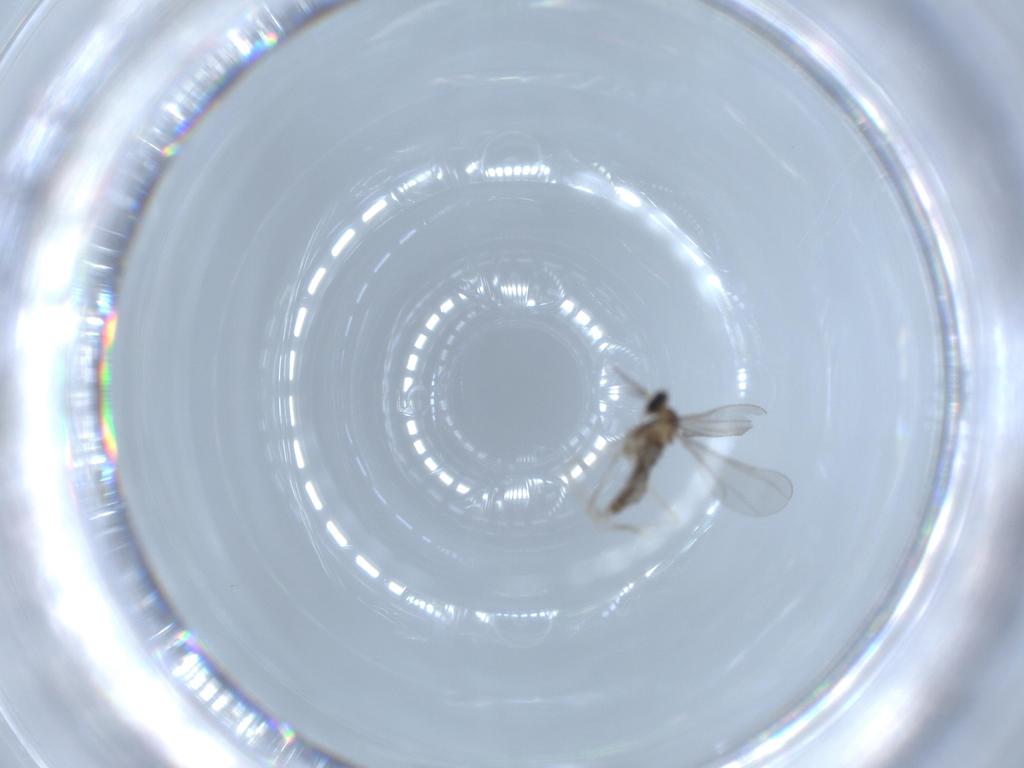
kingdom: Animalia
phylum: Arthropoda
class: Insecta
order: Diptera
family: Cecidomyiidae
